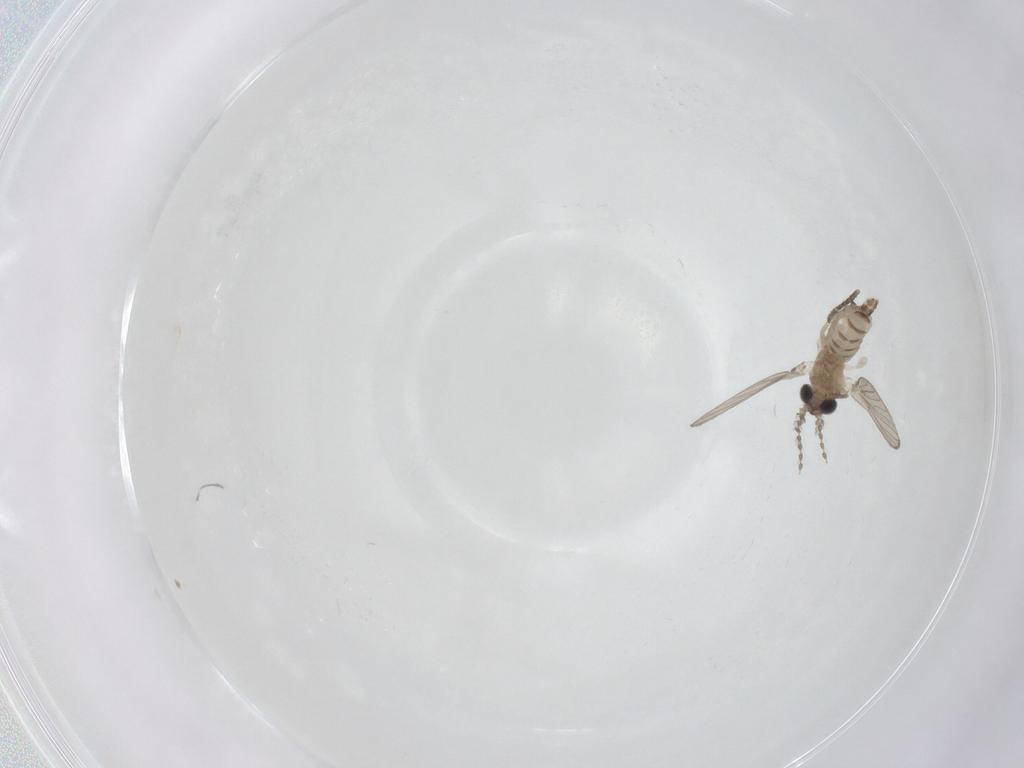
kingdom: Animalia
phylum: Arthropoda
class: Insecta
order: Diptera
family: Psychodidae
